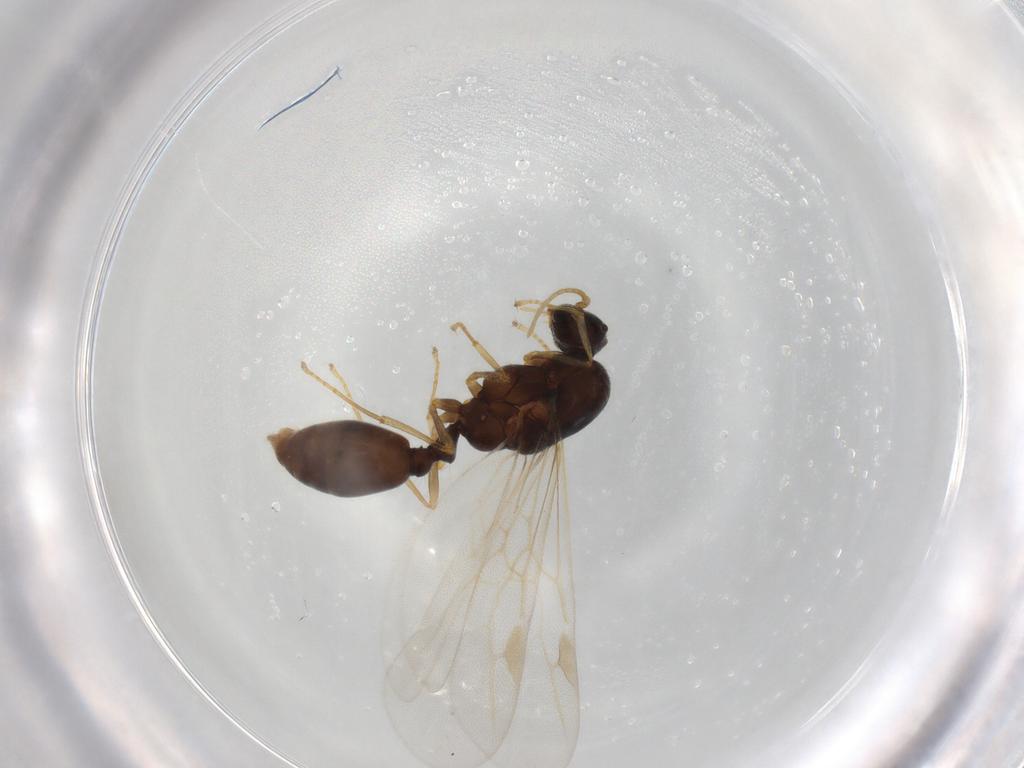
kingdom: Animalia
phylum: Arthropoda
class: Insecta
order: Hymenoptera
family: Formicidae
